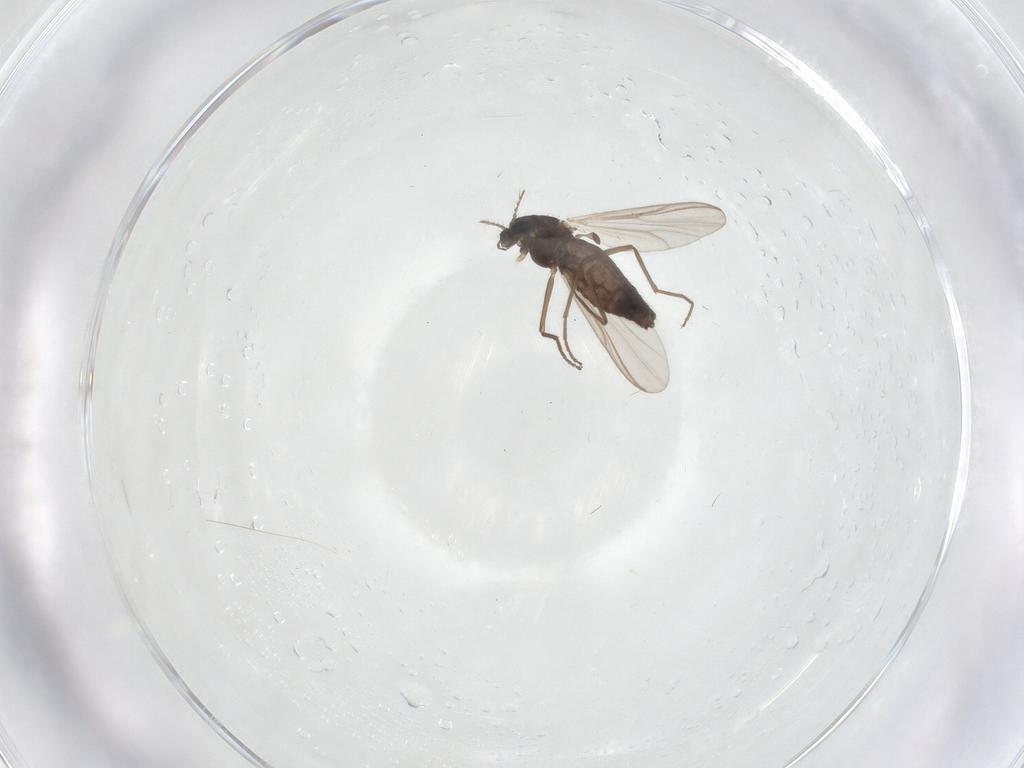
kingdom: Animalia
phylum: Arthropoda
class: Insecta
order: Diptera
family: Chironomidae
